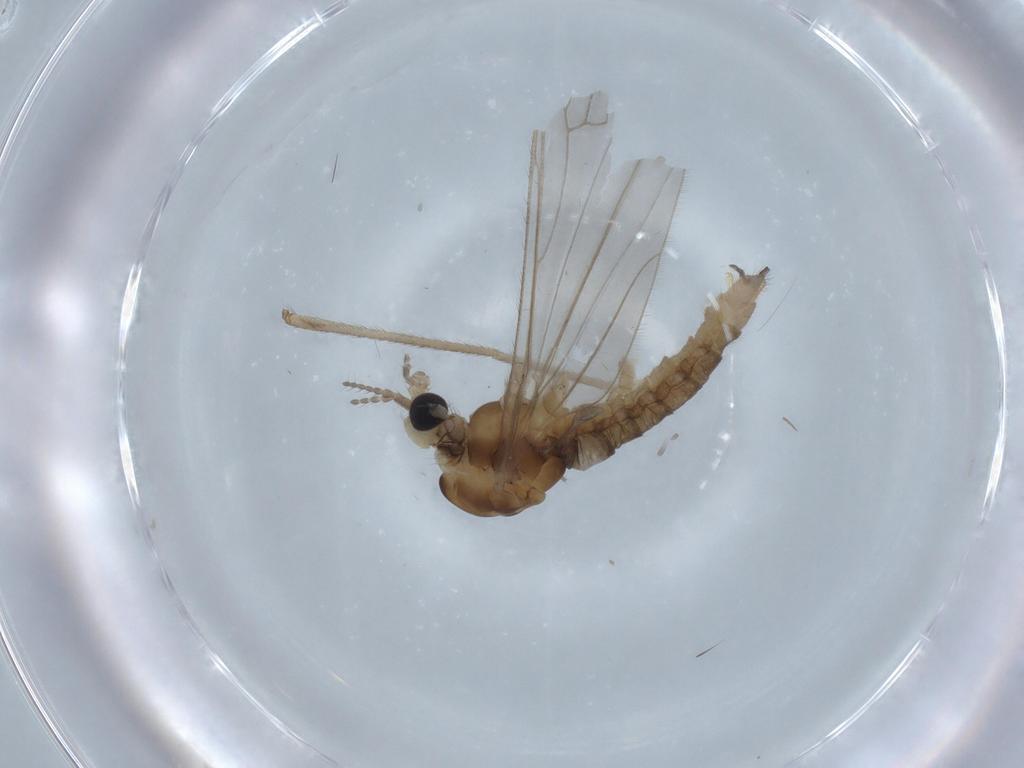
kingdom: Animalia
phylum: Arthropoda
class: Insecta
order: Diptera
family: Limoniidae
